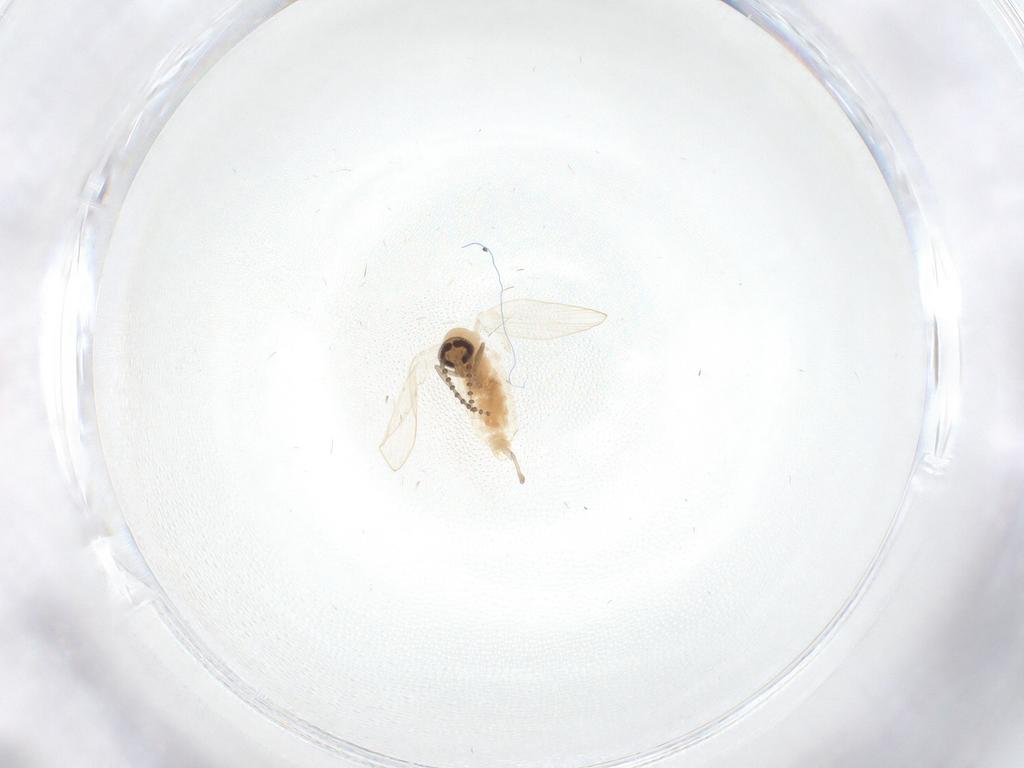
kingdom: Animalia
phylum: Arthropoda
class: Insecta
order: Diptera
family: Psychodidae
